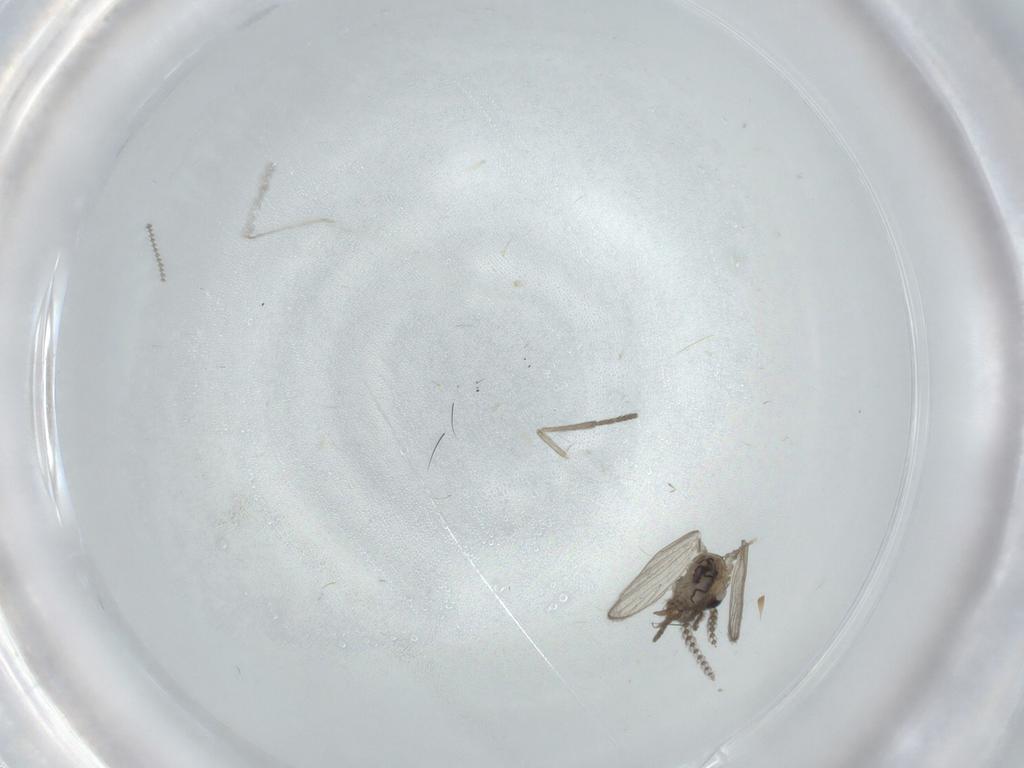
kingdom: Animalia
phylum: Arthropoda
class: Insecta
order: Diptera
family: Psychodidae
